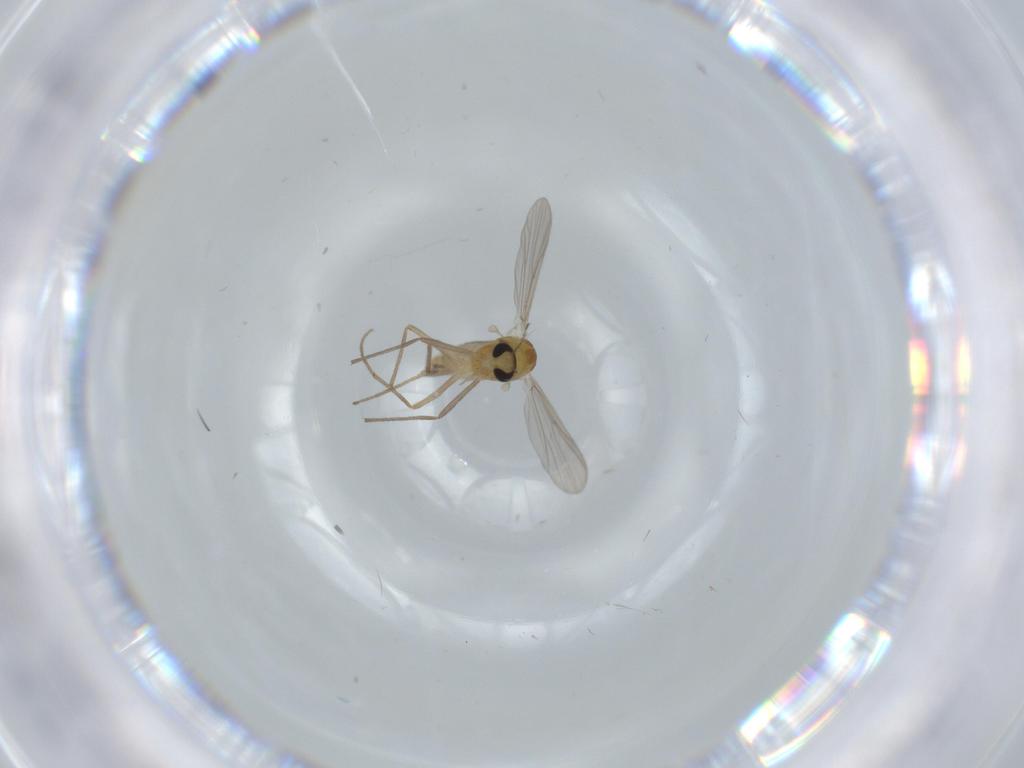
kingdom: Animalia
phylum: Arthropoda
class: Insecta
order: Diptera
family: Chironomidae
